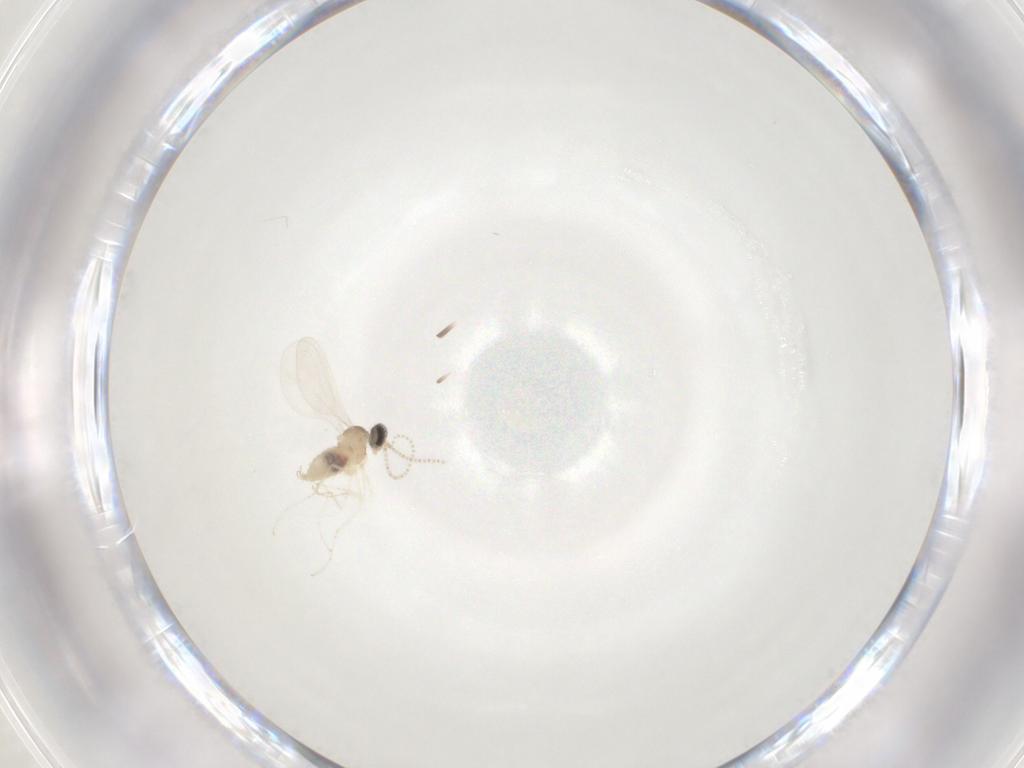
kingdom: Animalia
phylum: Arthropoda
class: Insecta
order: Diptera
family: Cecidomyiidae
